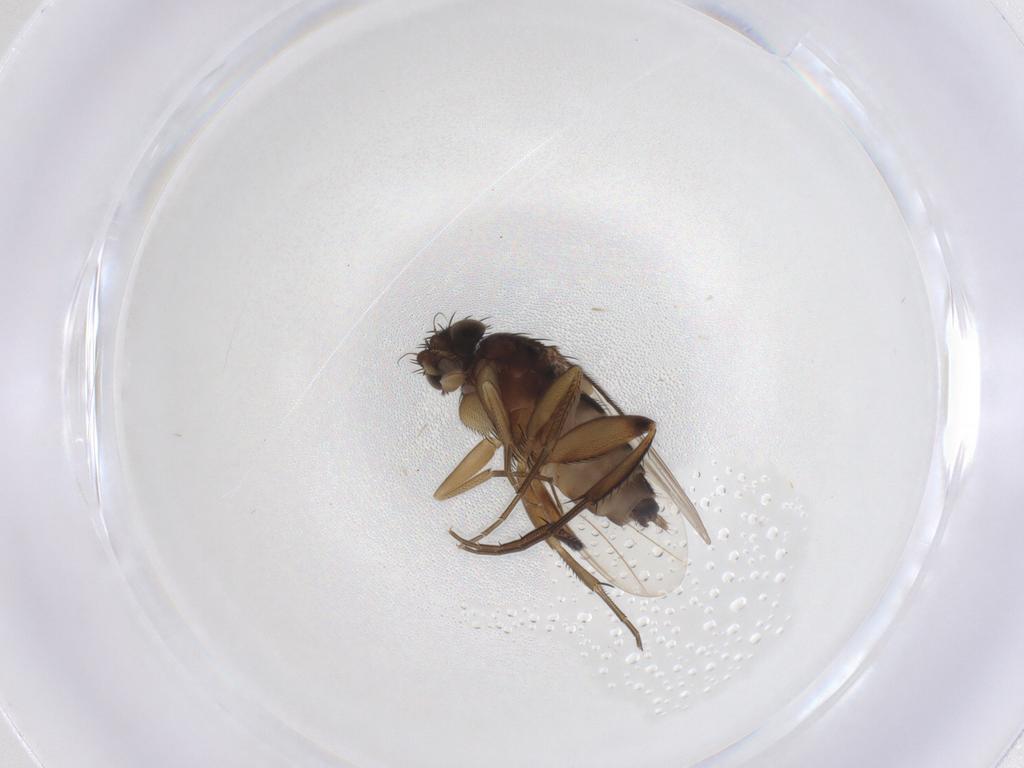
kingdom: Animalia
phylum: Arthropoda
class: Insecta
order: Diptera
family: Phoridae
